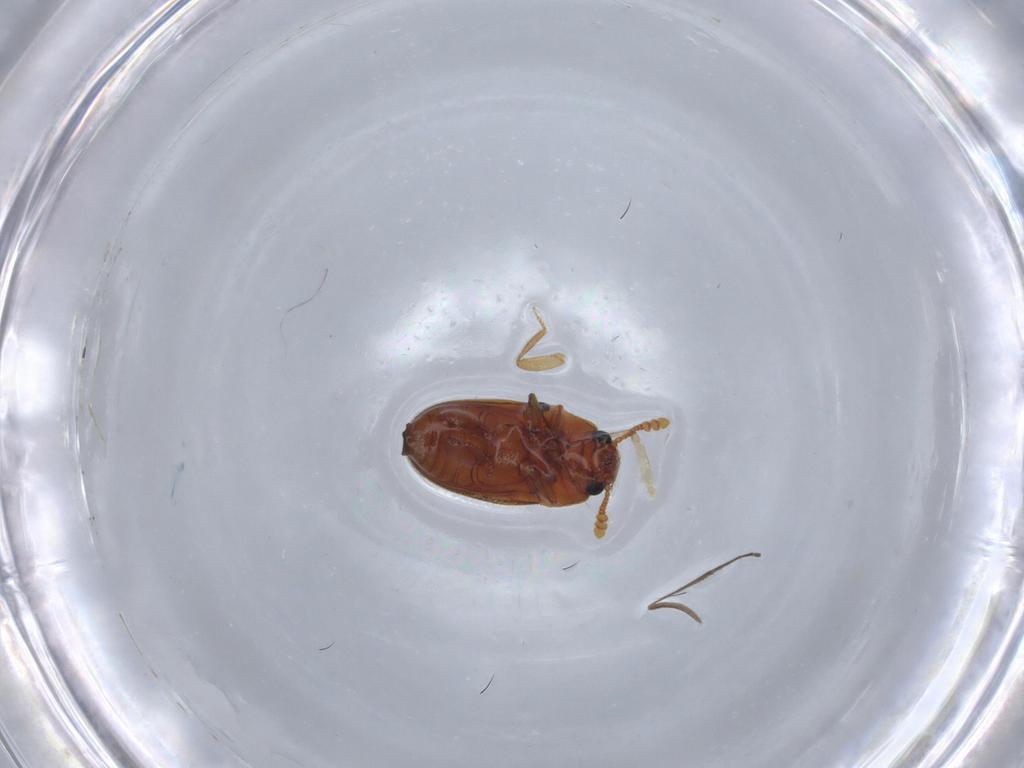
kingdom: Animalia
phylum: Arthropoda
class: Insecta
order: Coleoptera
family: Erotylidae
